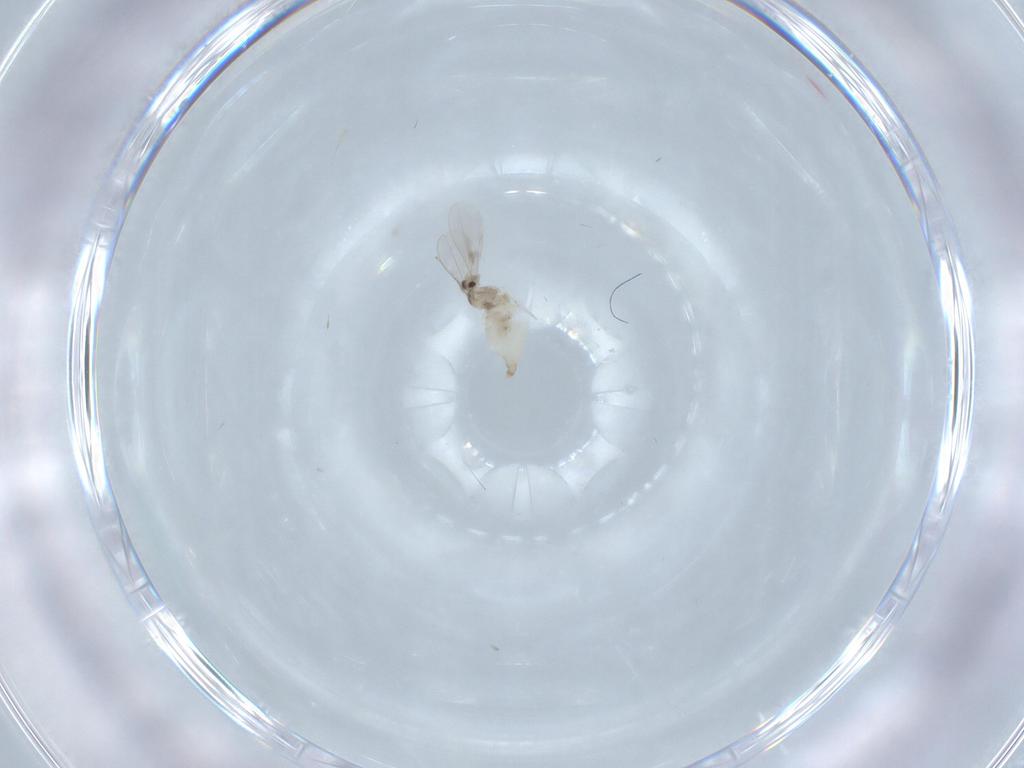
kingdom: Animalia
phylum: Arthropoda
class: Insecta
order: Diptera
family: Cecidomyiidae
